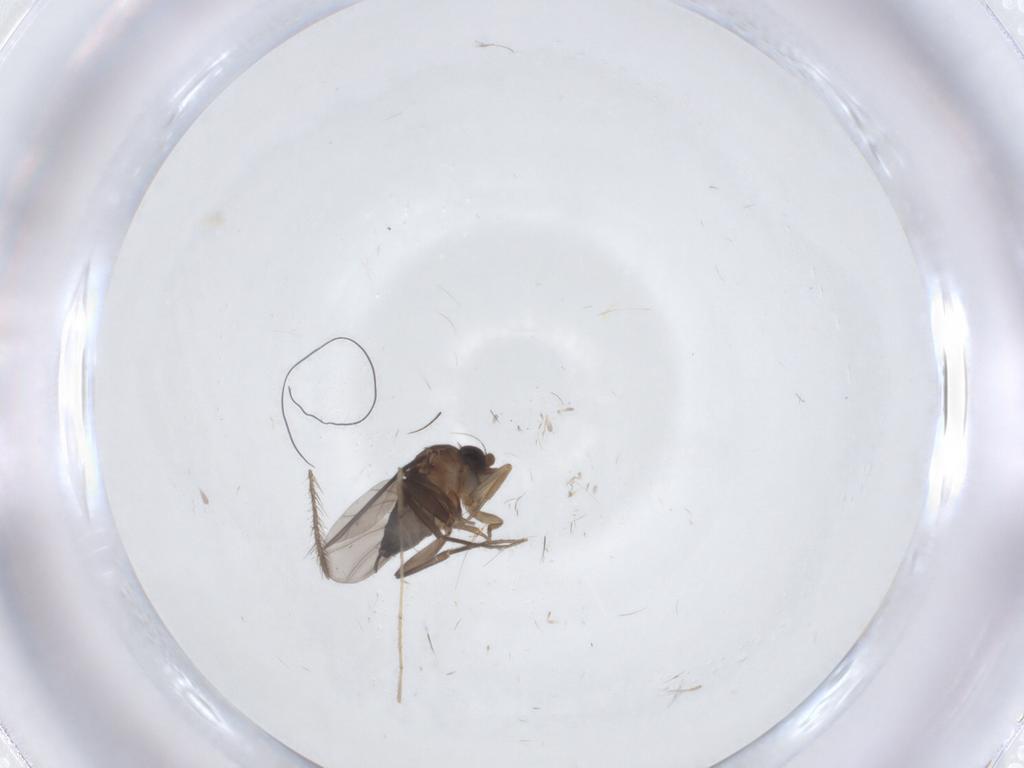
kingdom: Animalia
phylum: Arthropoda
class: Insecta
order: Diptera
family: Phoridae
